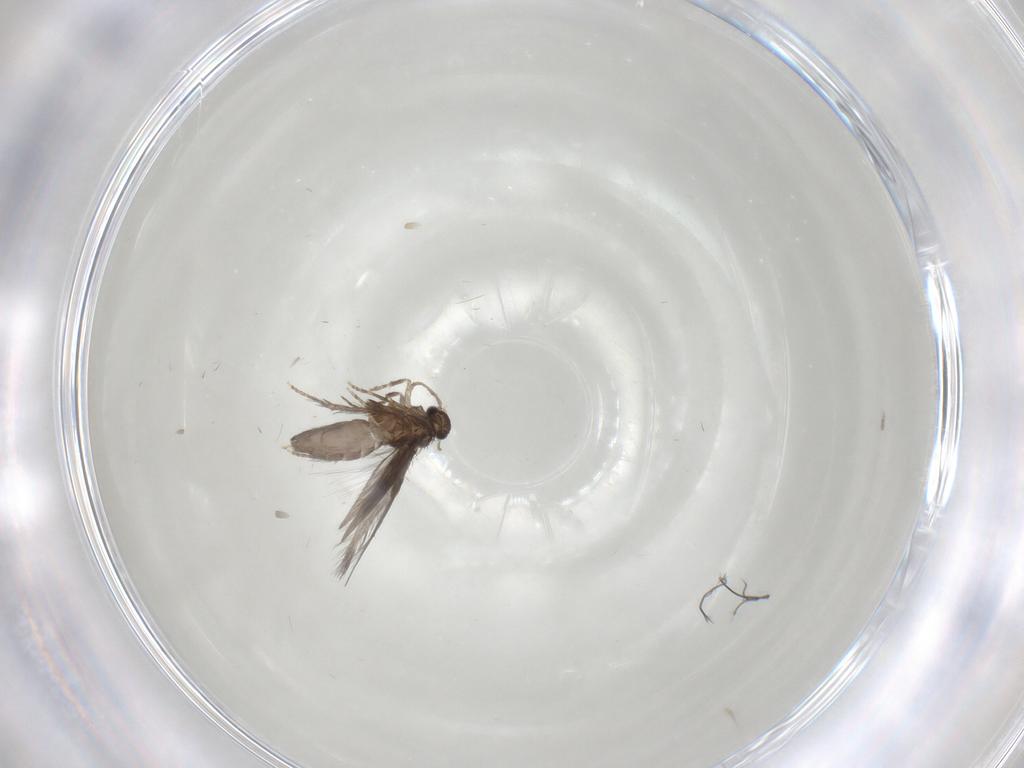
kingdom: Animalia
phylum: Arthropoda
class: Insecta
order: Trichoptera
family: Hydroptilidae
